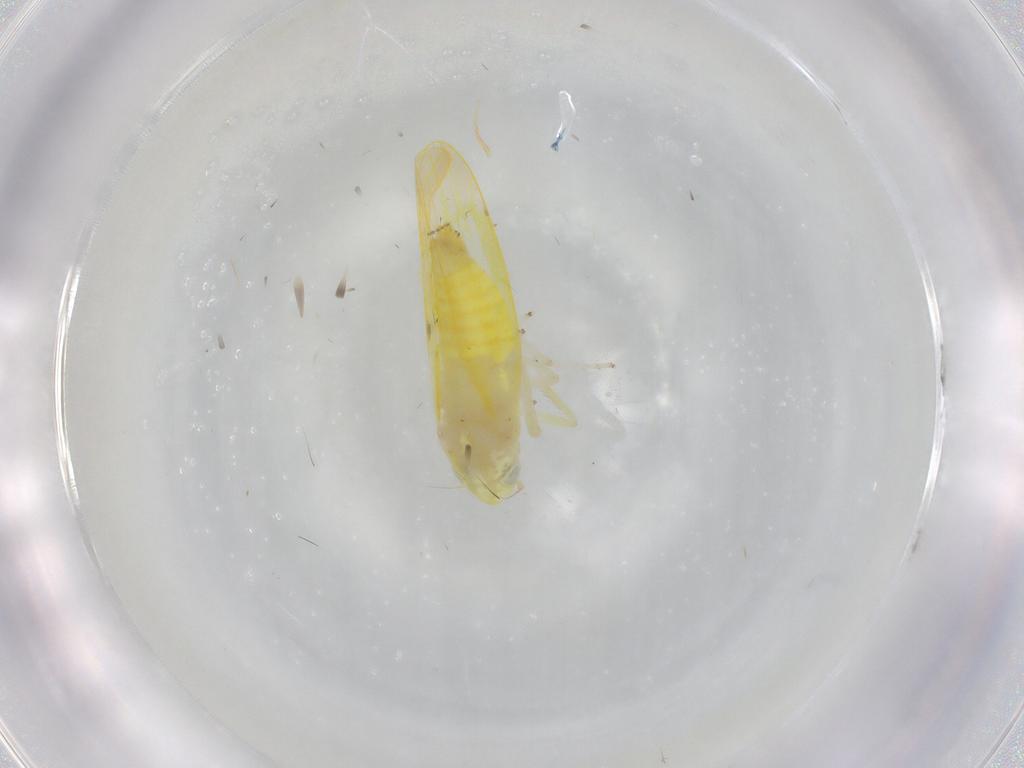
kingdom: Animalia
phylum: Arthropoda
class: Insecta
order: Hemiptera
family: Cicadellidae
